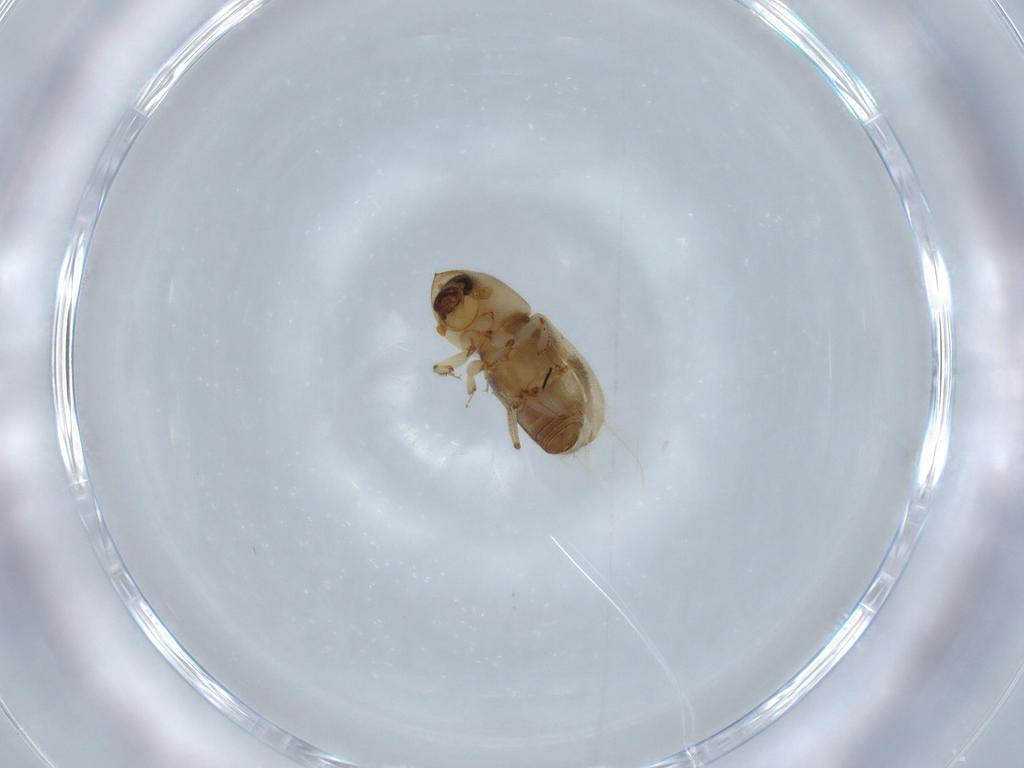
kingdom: Animalia
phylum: Arthropoda
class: Insecta
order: Coleoptera
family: Curculionidae
